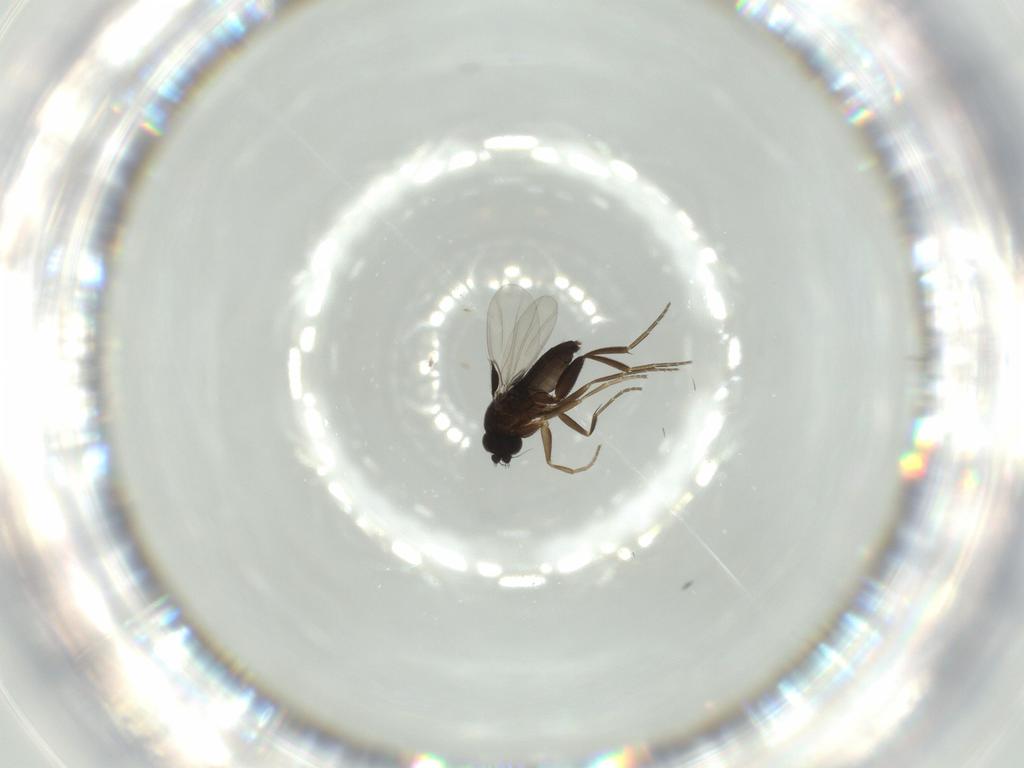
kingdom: Animalia
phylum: Arthropoda
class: Insecta
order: Diptera
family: Phoridae
